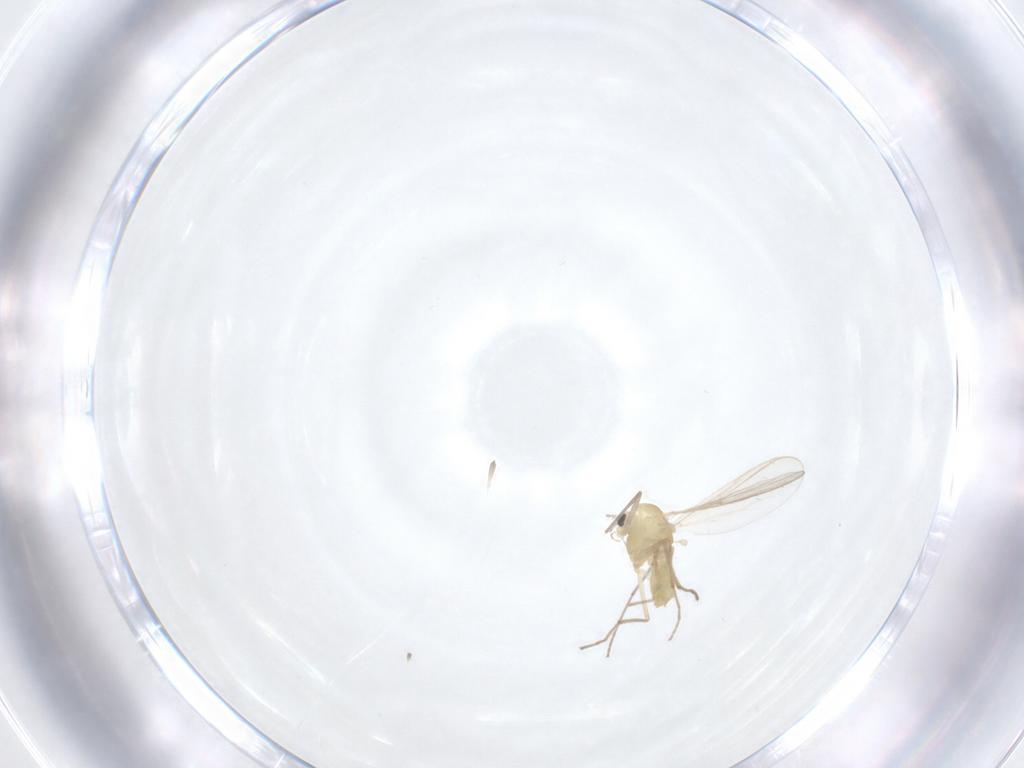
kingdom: Animalia
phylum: Arthropoda
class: Insecta
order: Diptera
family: Chironomidae
